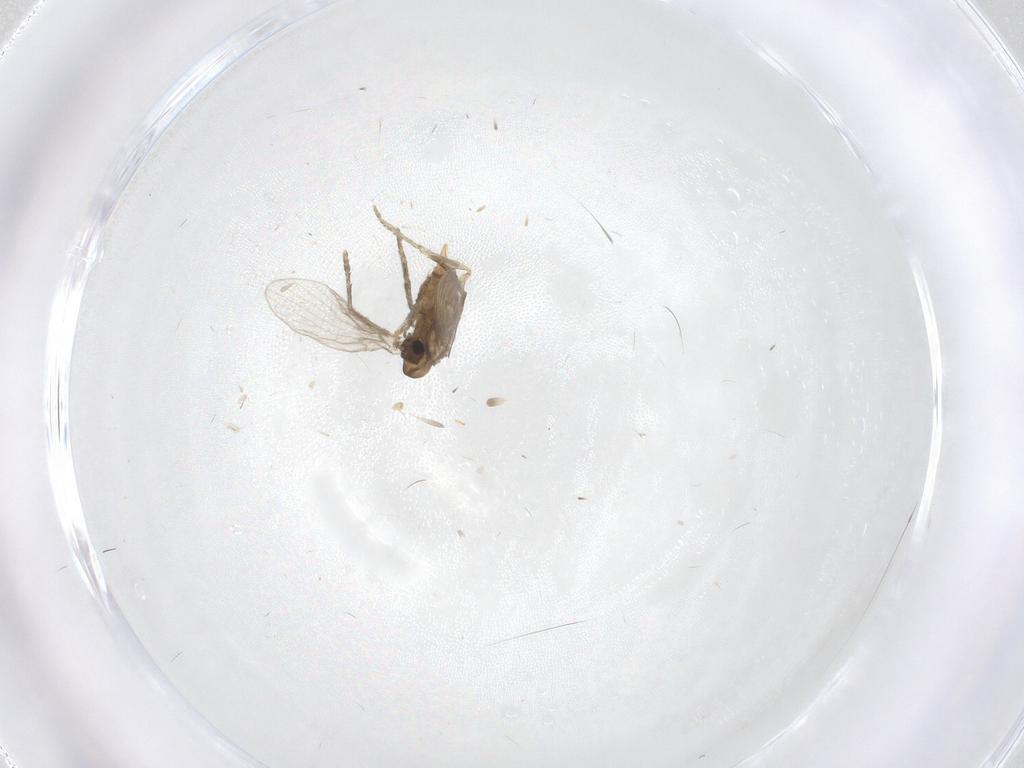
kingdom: Animalia
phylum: Arthropoda
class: Insecta
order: Diptera
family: Psychodidae
